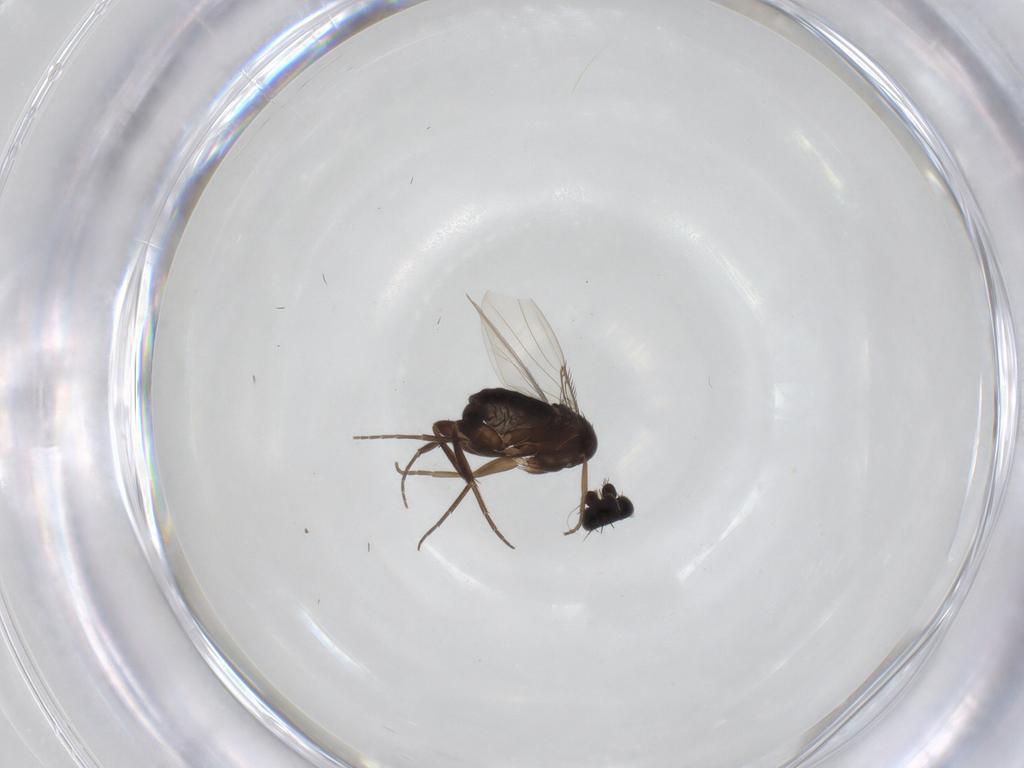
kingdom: Animalia
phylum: Arthropoda
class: Insecta
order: Diptera
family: Phoridae
